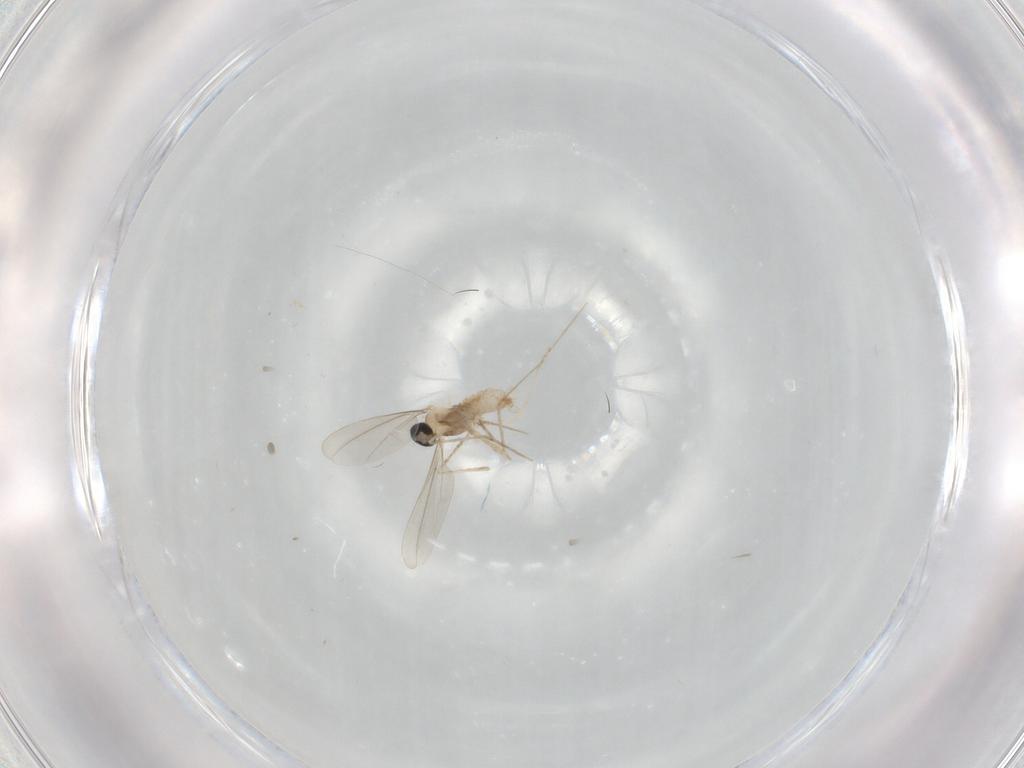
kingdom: Animalia
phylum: Arthropoda
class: Insecta
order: Diptera
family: Cecidomyiidae
